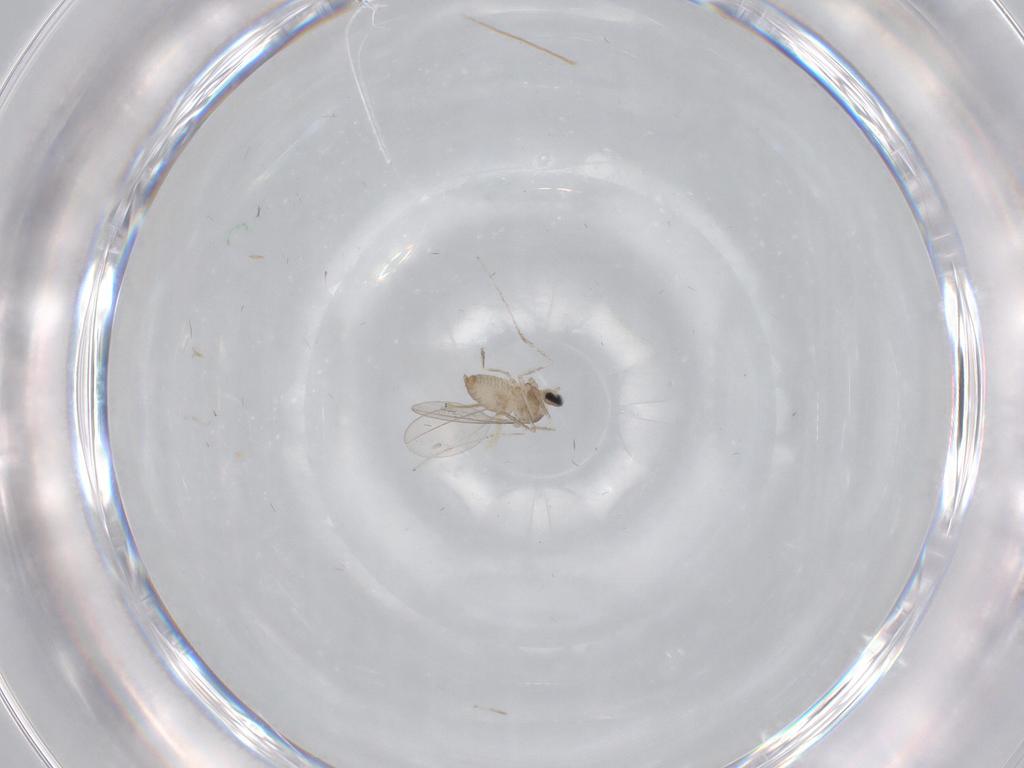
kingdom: Animalia
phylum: Arthropoda
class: Insecta
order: Diptera
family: Chironomidae
